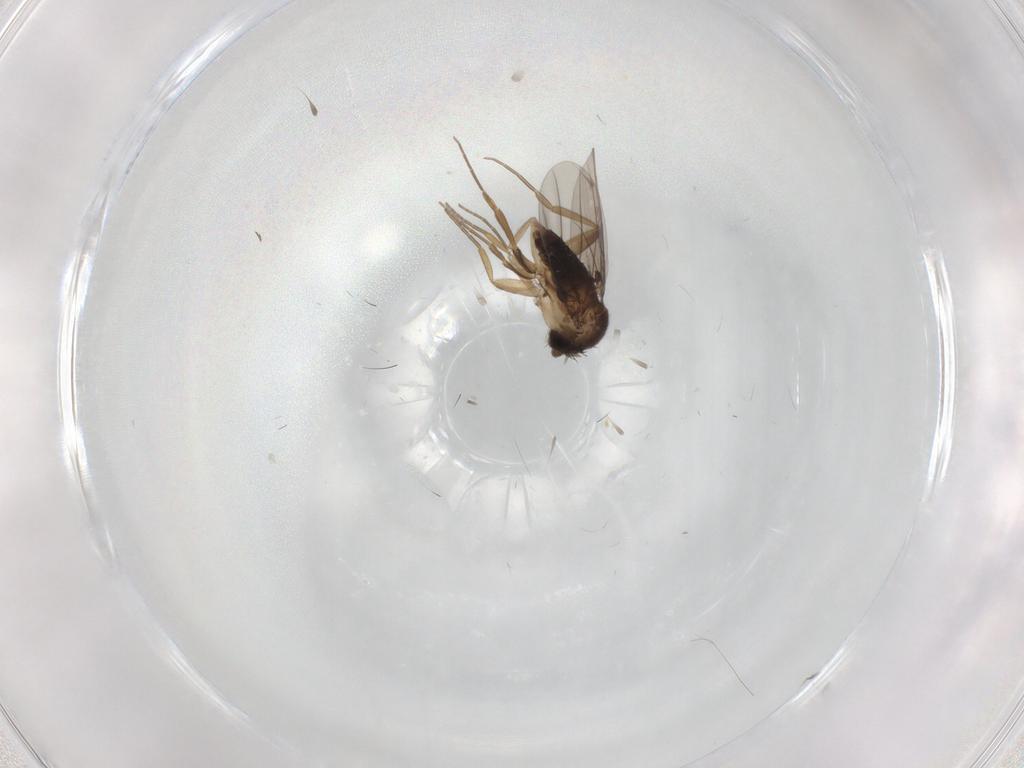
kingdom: Animalia
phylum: Arthropoda
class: Insecta
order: Diptera
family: Phoridae
